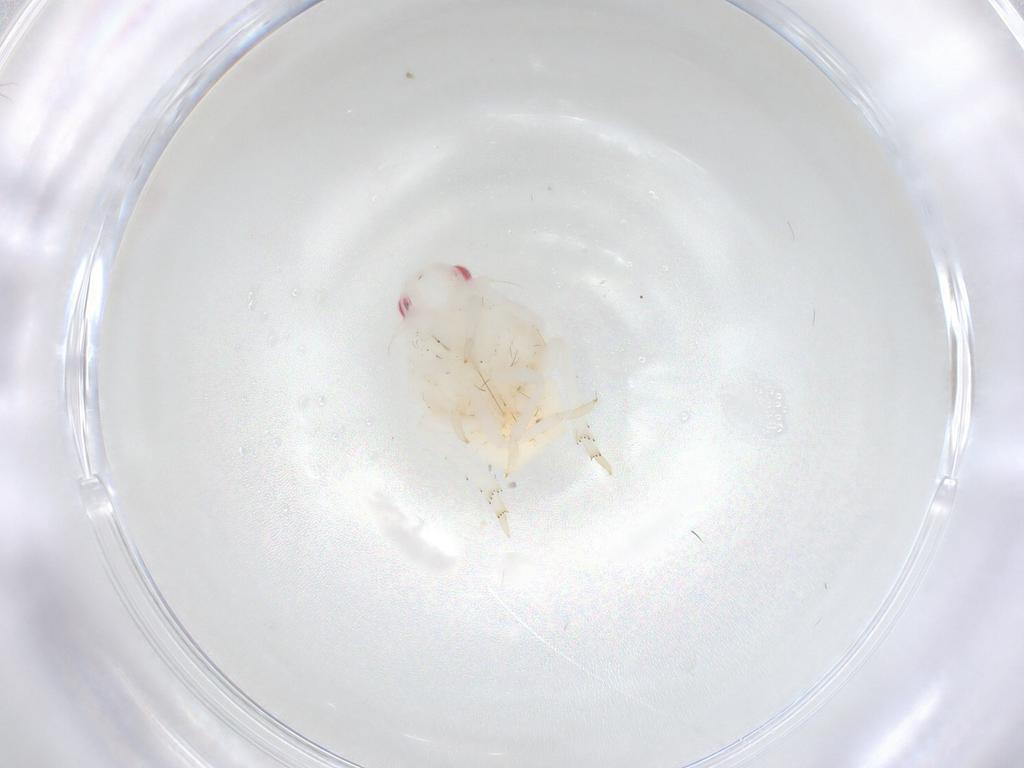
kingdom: Animalia
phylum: Arthropoda
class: Insecta
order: Hemiptera
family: Flatidae
